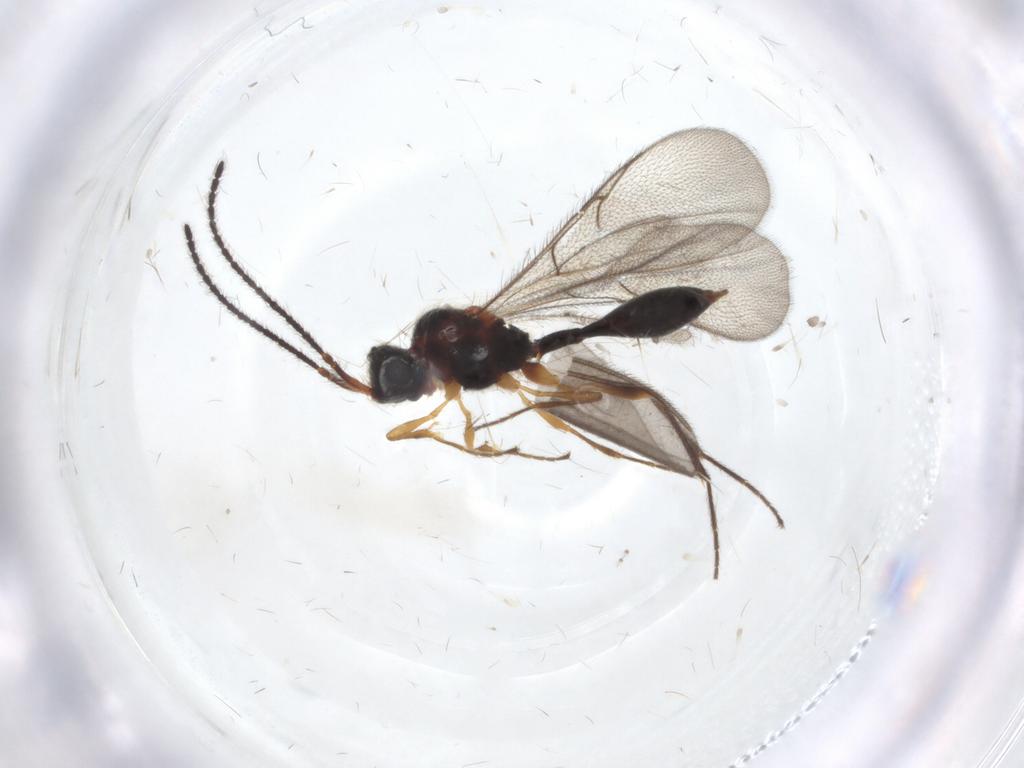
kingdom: Animalia
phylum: Arthropoda
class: Insecta
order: Hymenoptera
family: Diapriidae
